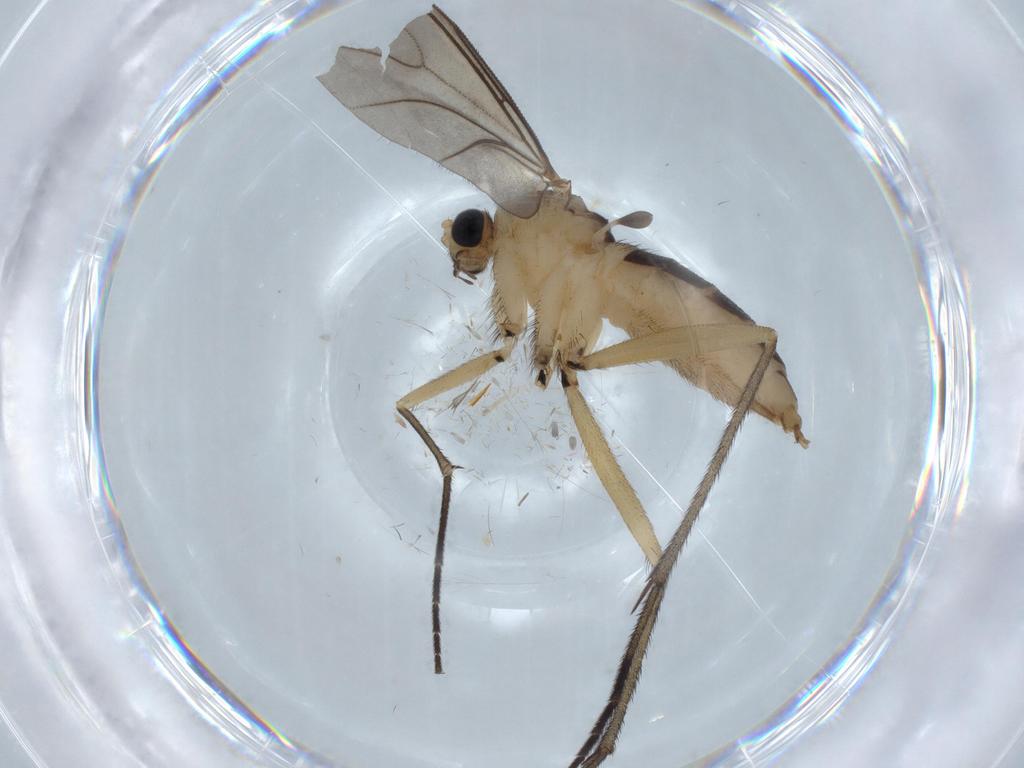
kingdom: Animalia
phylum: Arthropoda
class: Insecta
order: Diptera
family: Sciaridae
